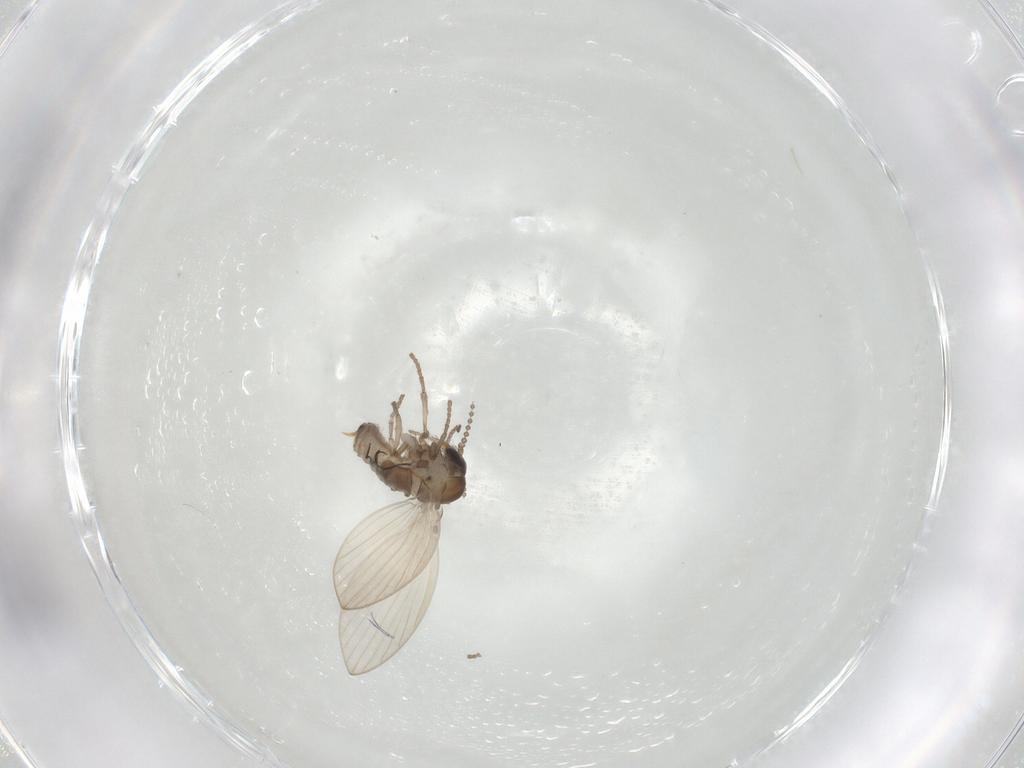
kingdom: Animalia
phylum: Arthropoda
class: Insecta
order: Diptera
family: Psychodidae
